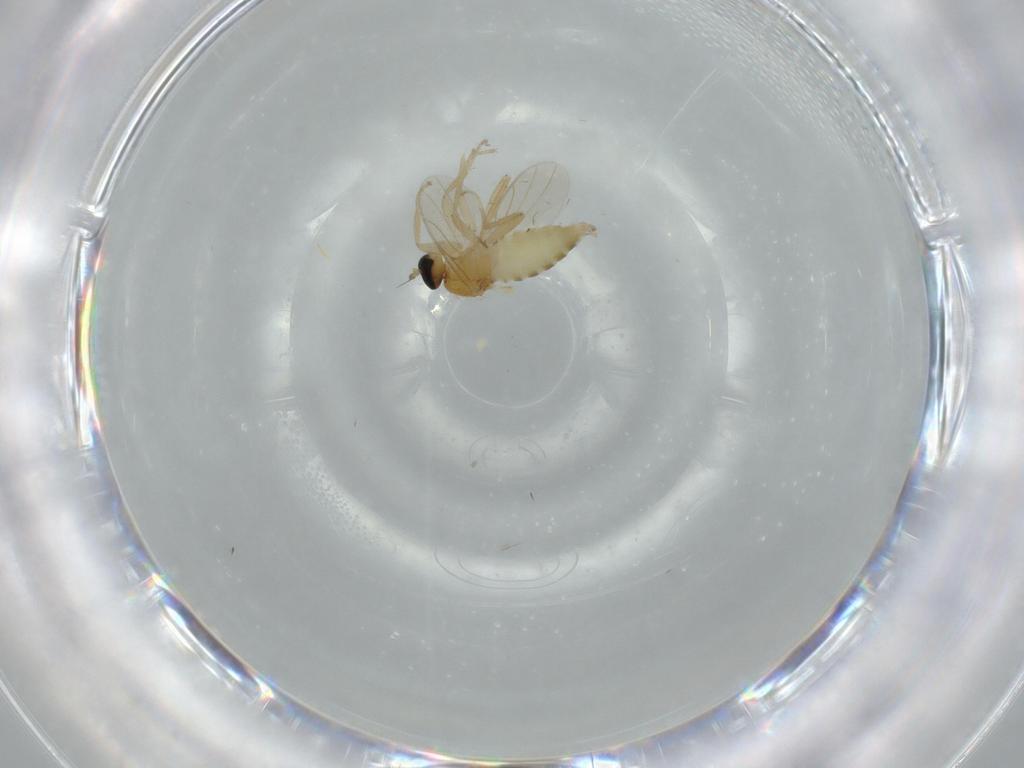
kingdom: Animalia
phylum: Arthropoda
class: Insecta
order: Diptera
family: Hybotidae
